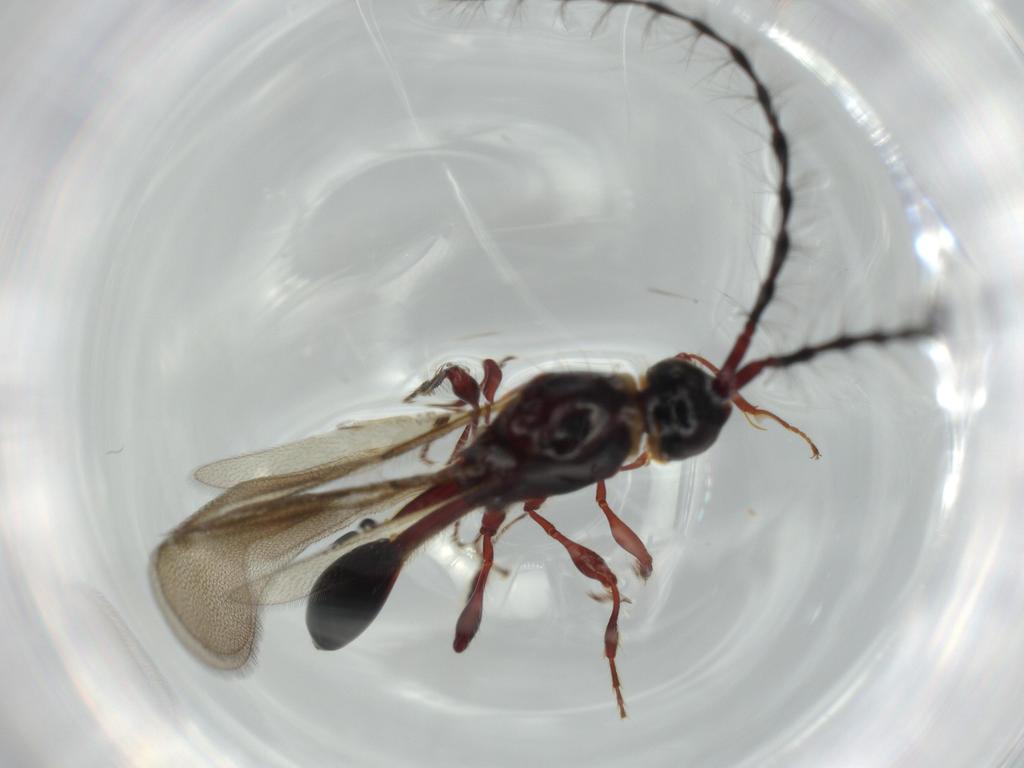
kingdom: Animalia
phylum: Arthropoda
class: Insecta
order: Hymenoptera
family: Diapriidae
